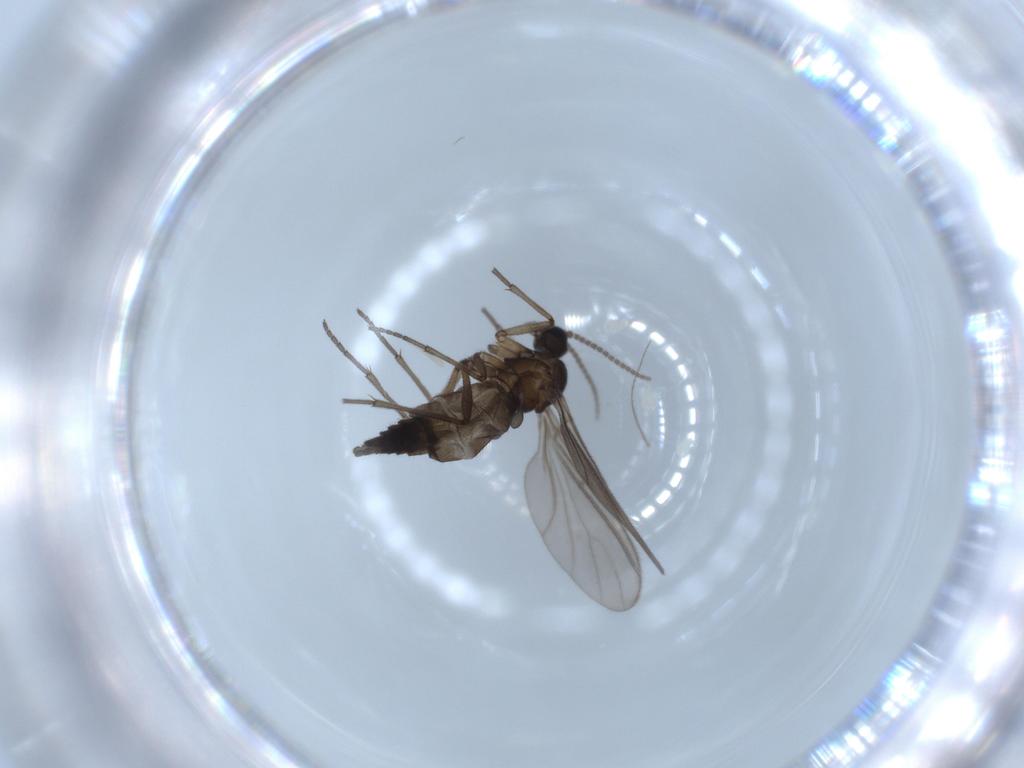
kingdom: Animalia
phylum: Arthropoda
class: Insecta
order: Diptera
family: Sciaridae
